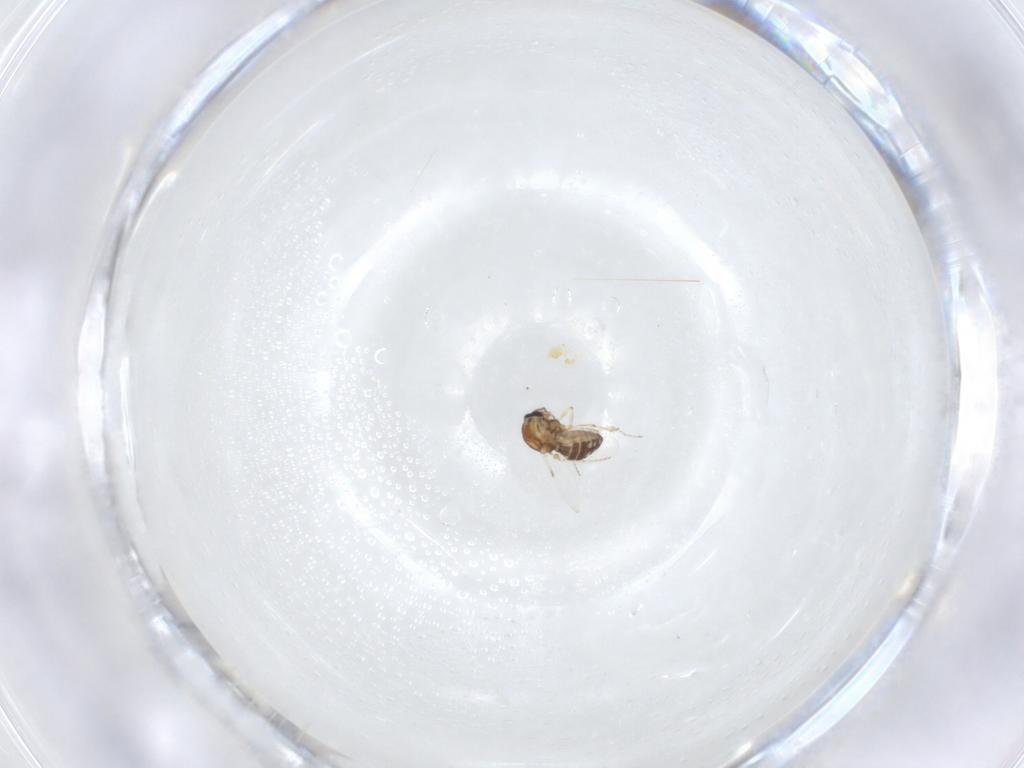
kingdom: Animalia
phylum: Arthropoda
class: Insecta
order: Diptera
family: Ceratopogonidae
